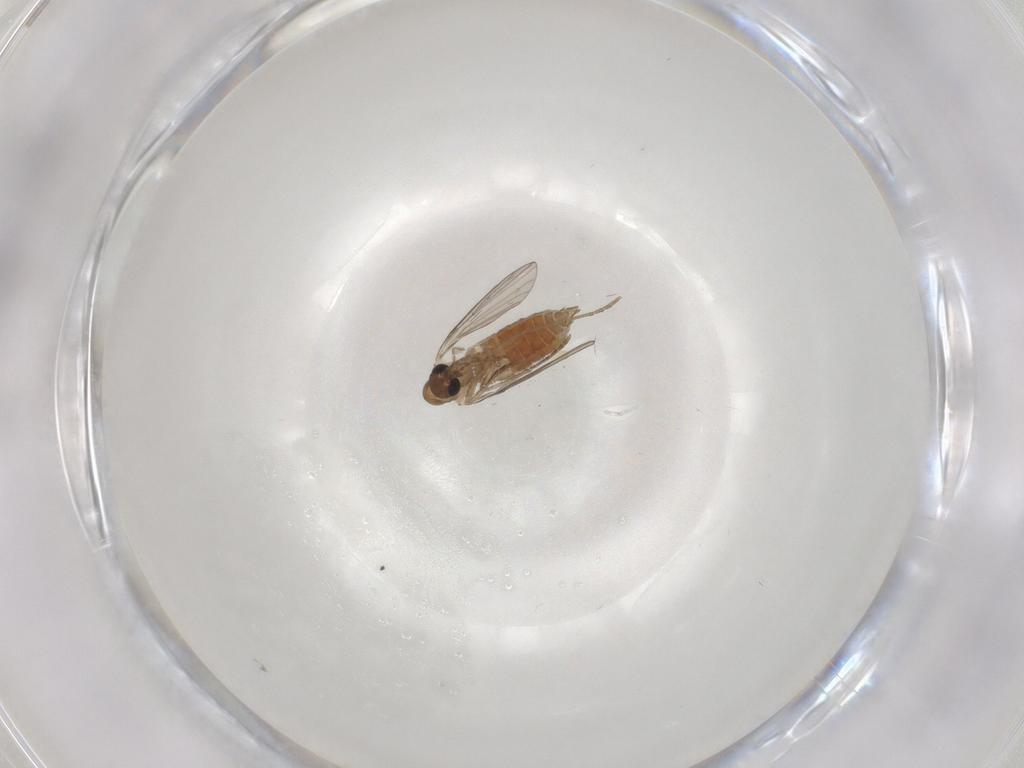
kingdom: Animalia
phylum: Arthropoda
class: Insecta
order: Diptera
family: Psychodidae
